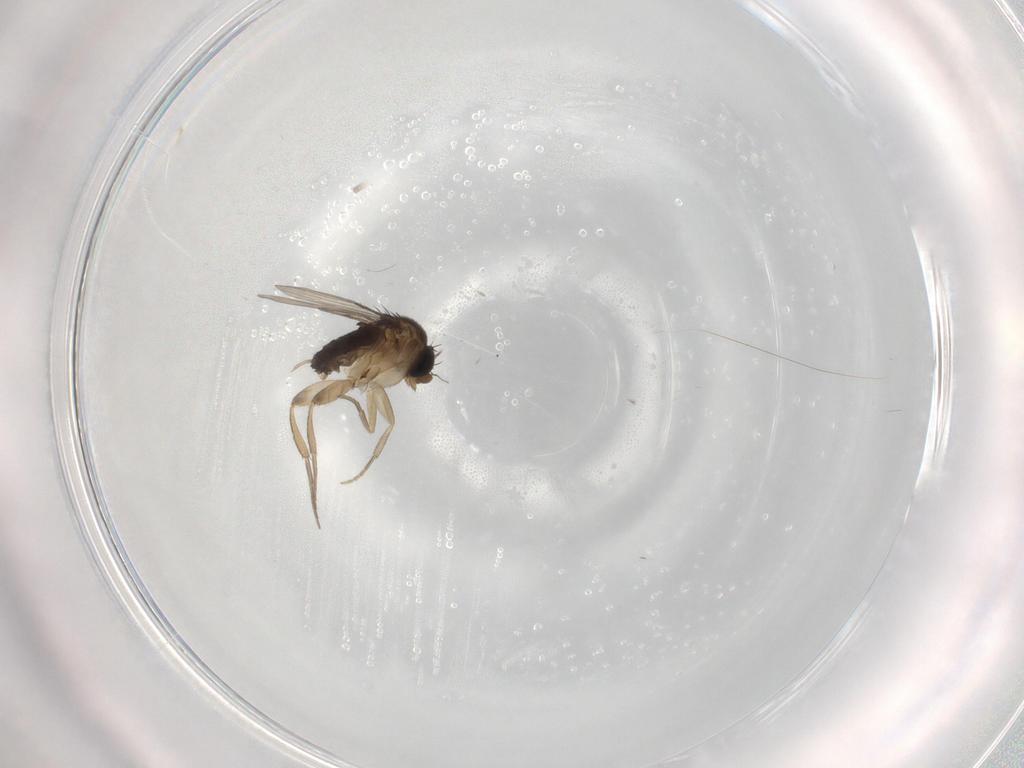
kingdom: Animalia
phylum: Arthropoda
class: Insecta
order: Diptera
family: Phoridae
